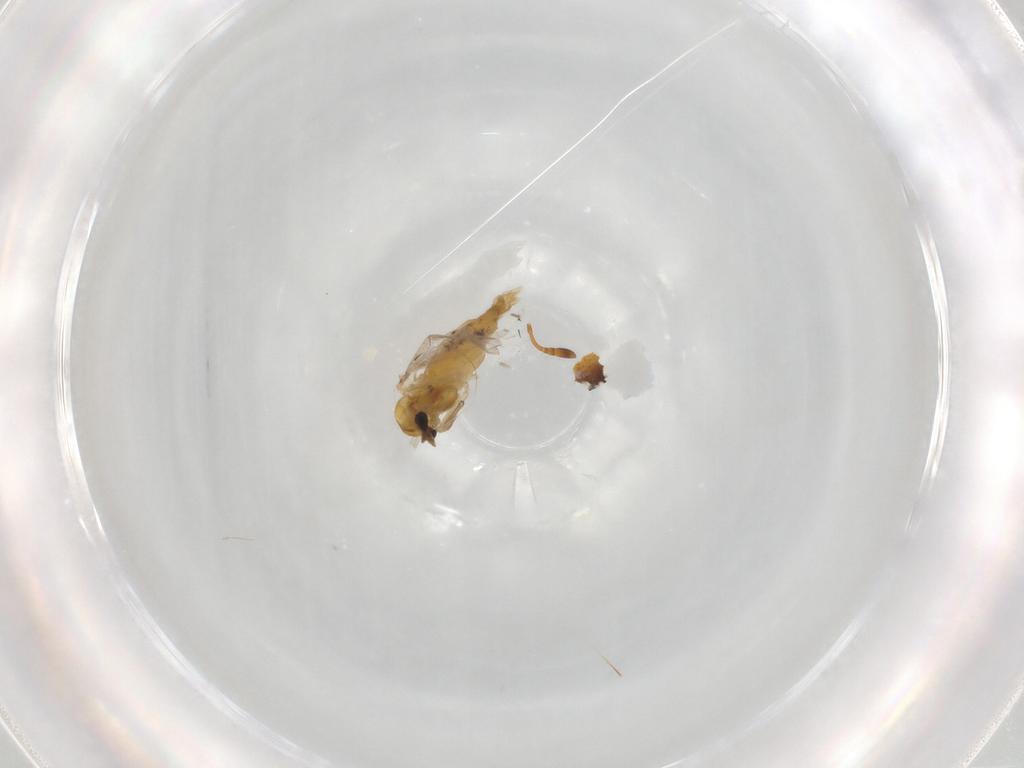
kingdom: Animalia
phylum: Arthropoda
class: Insecta
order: Diptera
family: Chironomidae
